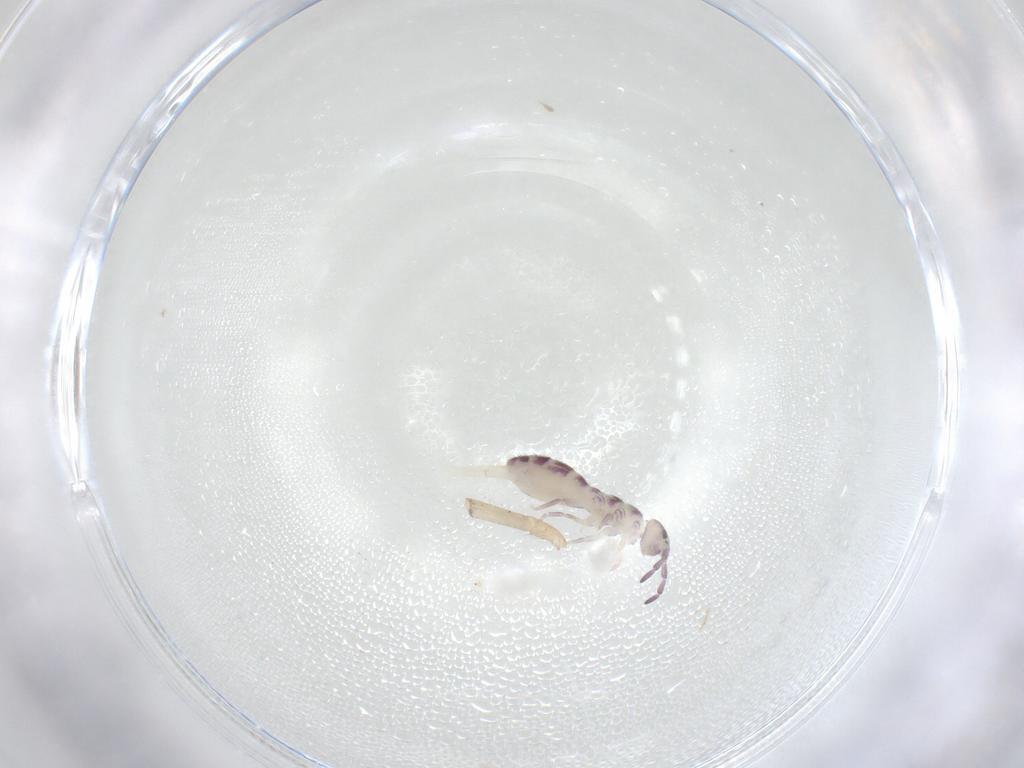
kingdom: Animalia
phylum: Arthropoda
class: Collembola
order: Entomobryomorpha
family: Isotomidae
